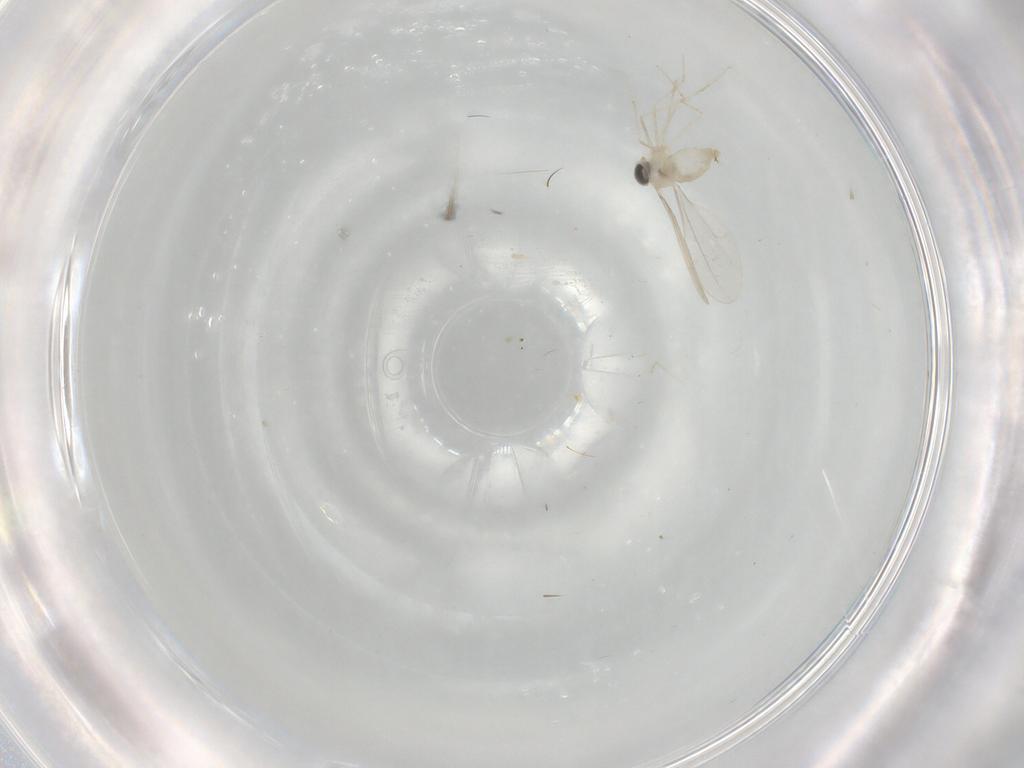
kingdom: Animalia
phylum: Arthropoda
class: Insecta
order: Diptera
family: Cecidomyiidae
